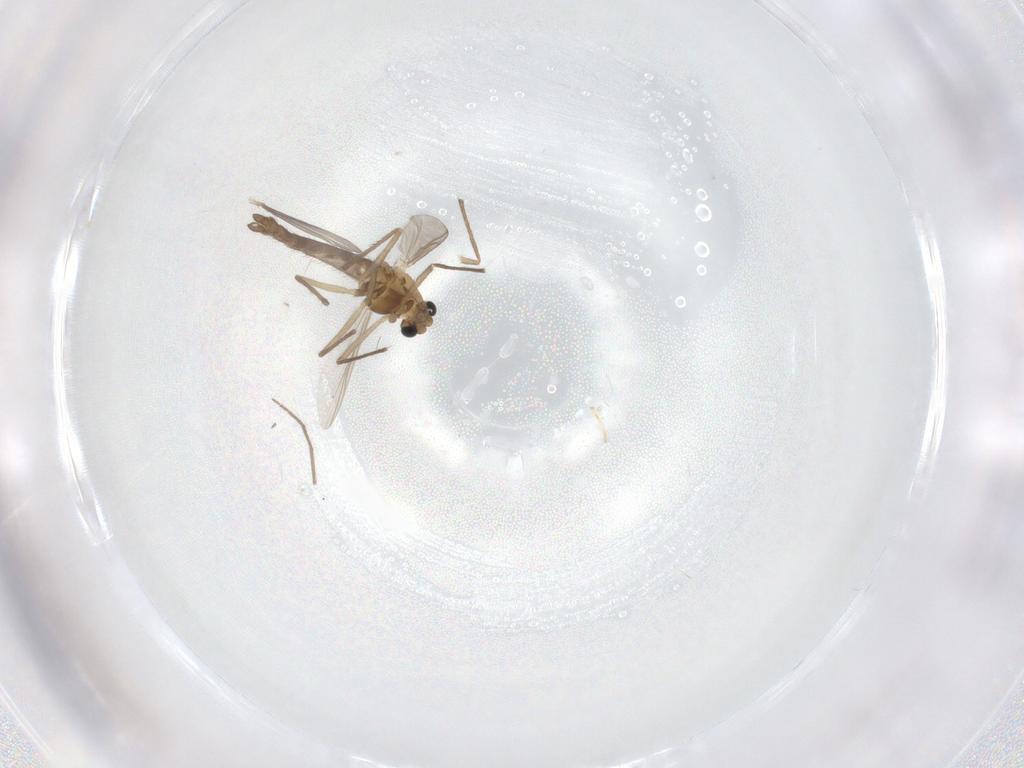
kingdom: Animalia
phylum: Arthropoda
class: Insecta
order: Diptera
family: Chironomidae
